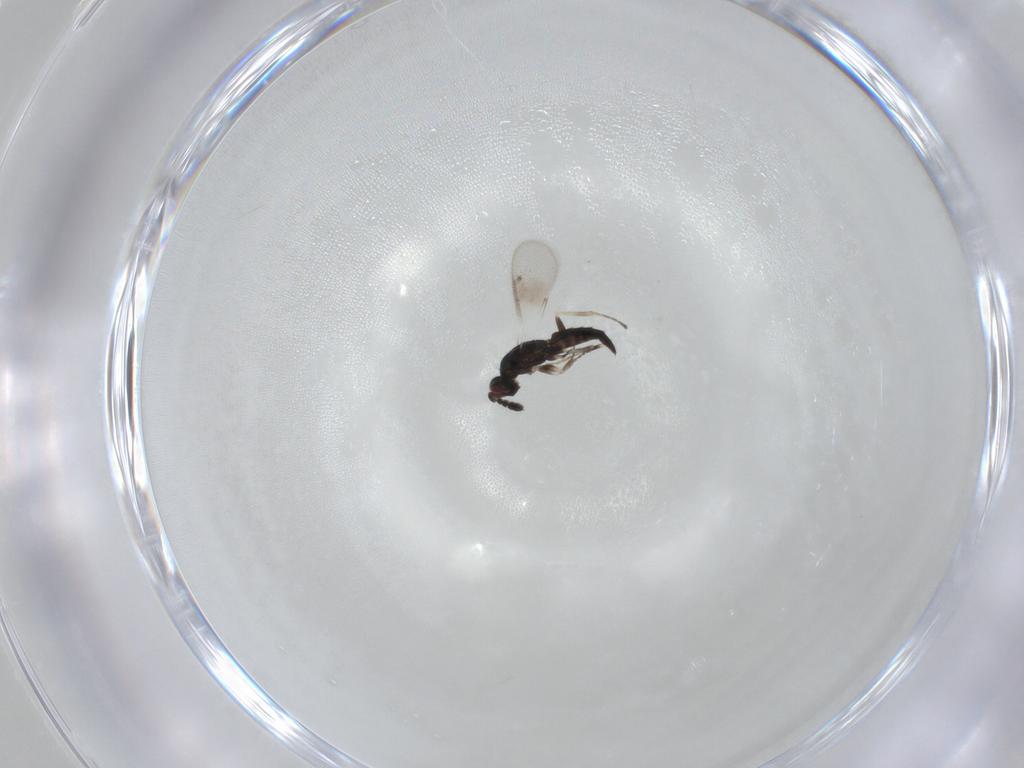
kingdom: Animalia
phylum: Arthropoda
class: Insecta
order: Hymenoptera
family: Eulophidae
